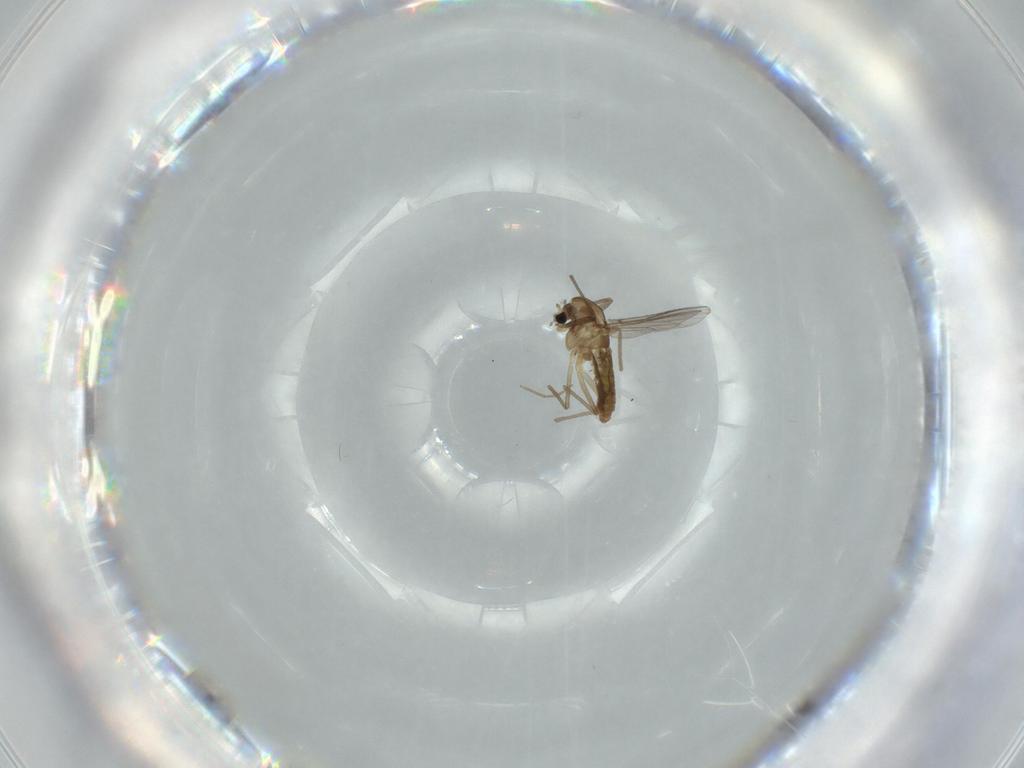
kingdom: Animalia
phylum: Arthropoda
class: Insecta
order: Diptera
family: Chironomidae
